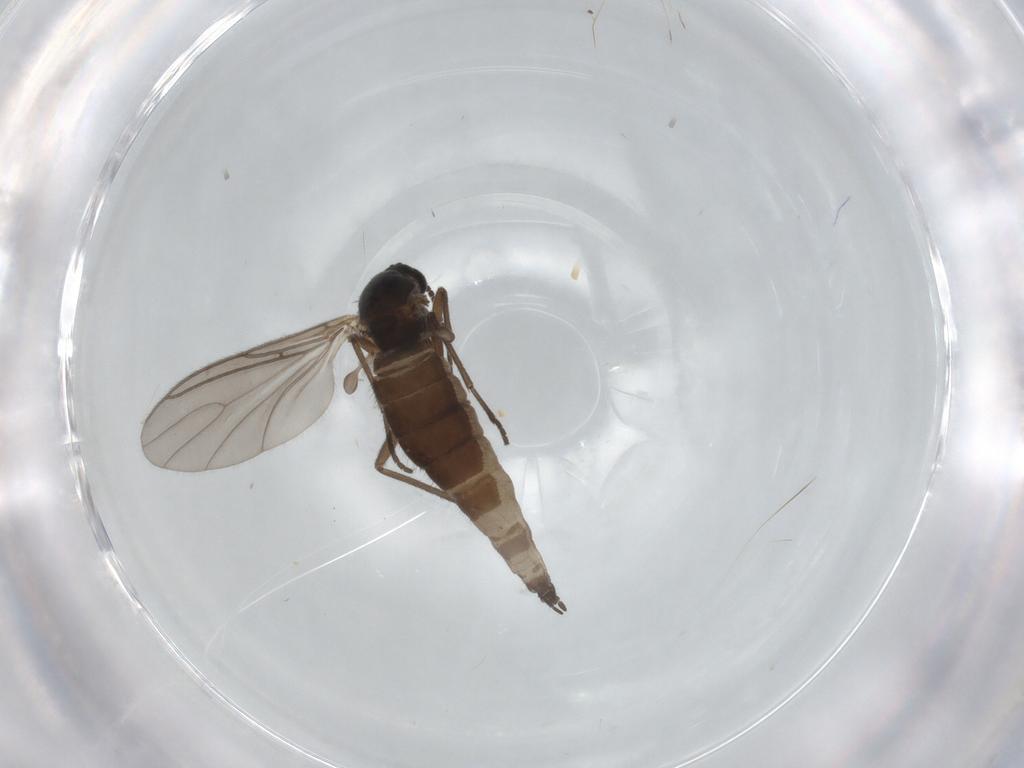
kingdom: Animalia
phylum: Arthropoda
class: Insecta
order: Diptera
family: Sciaridae
